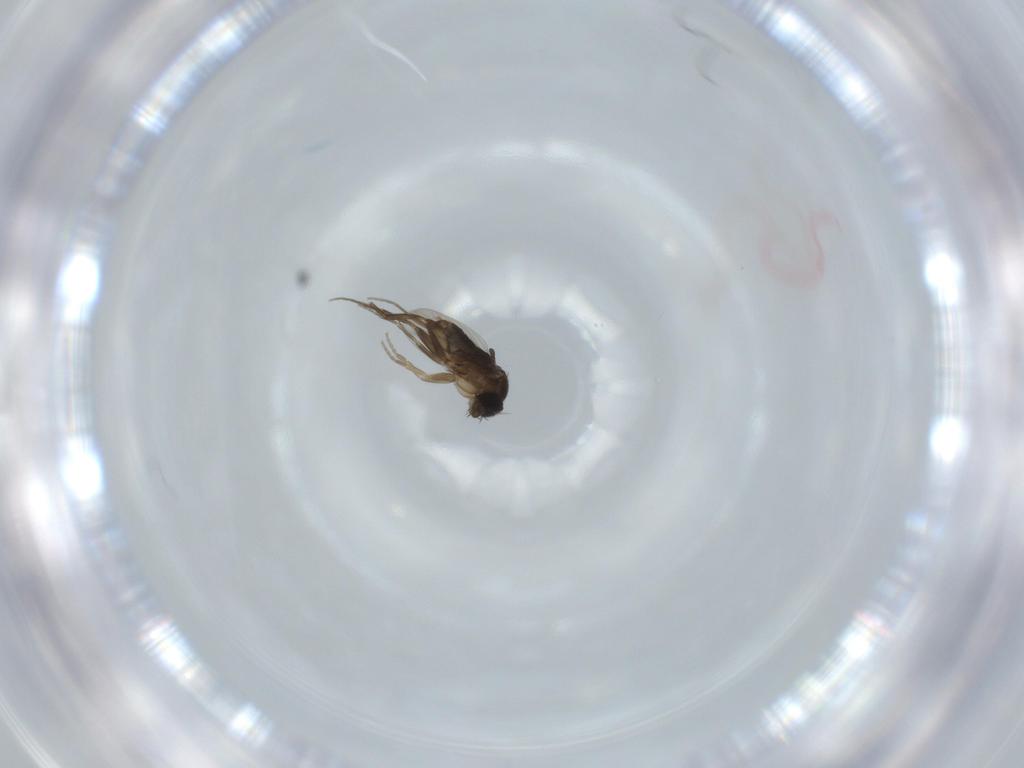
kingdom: Animalia
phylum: Arthropoda
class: Insecta
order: Diptera
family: Phoridae
